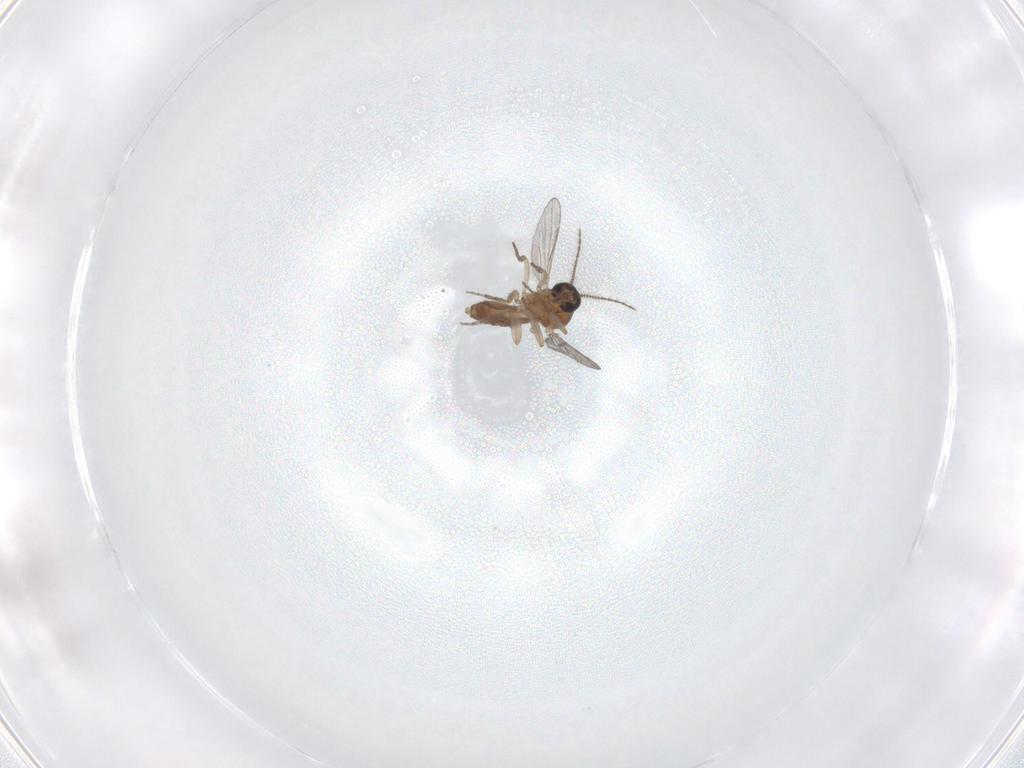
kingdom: Animalia
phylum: Arthropoda
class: Insecta
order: Diptera
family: Ceratopogonidae
